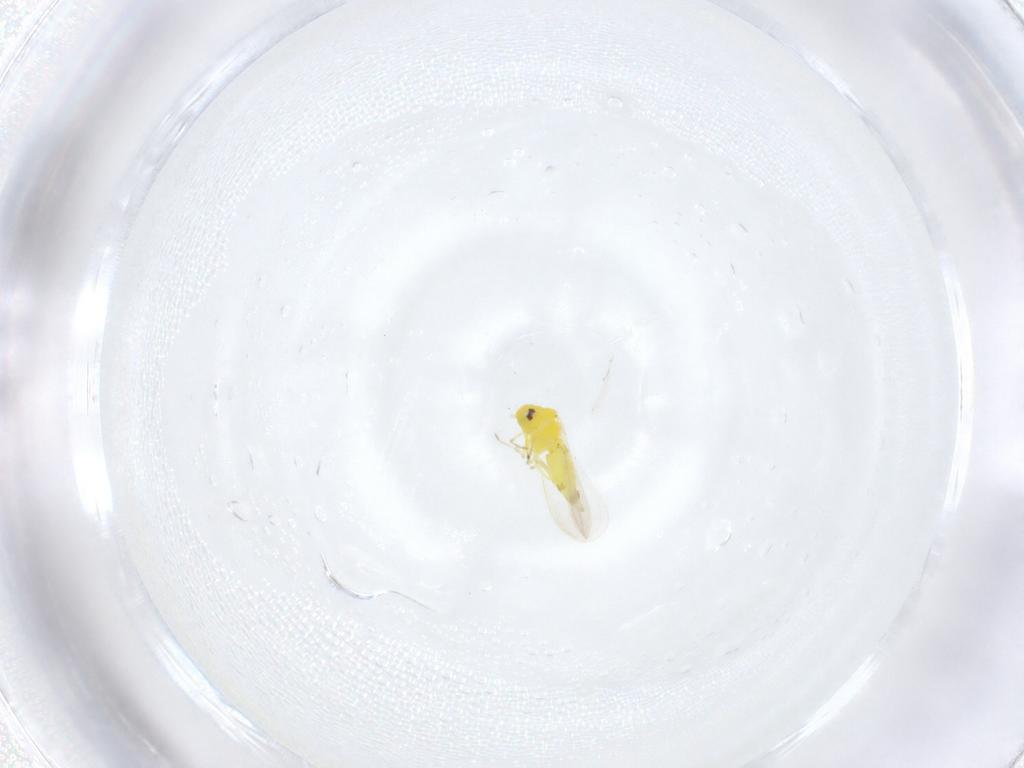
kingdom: Animalia
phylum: Arthropoda
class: Insecta
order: Hemiptera
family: Aleyrodidae
